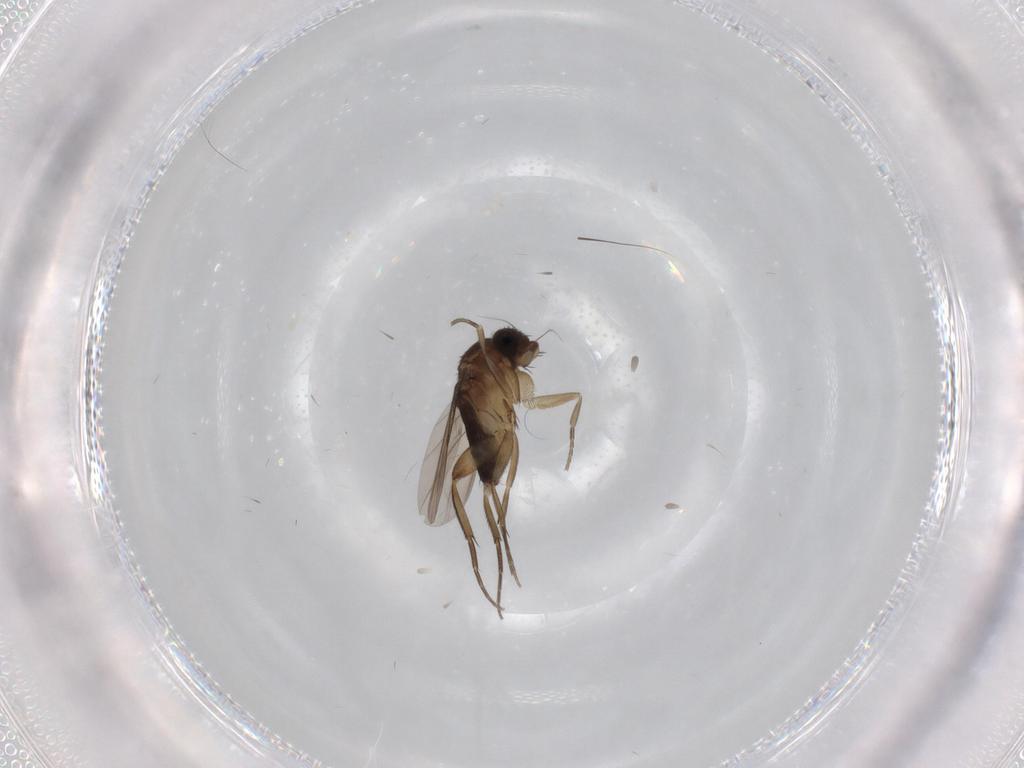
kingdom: Animalia
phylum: Arthropoda
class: Insecta
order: Diptera
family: Phoridae
